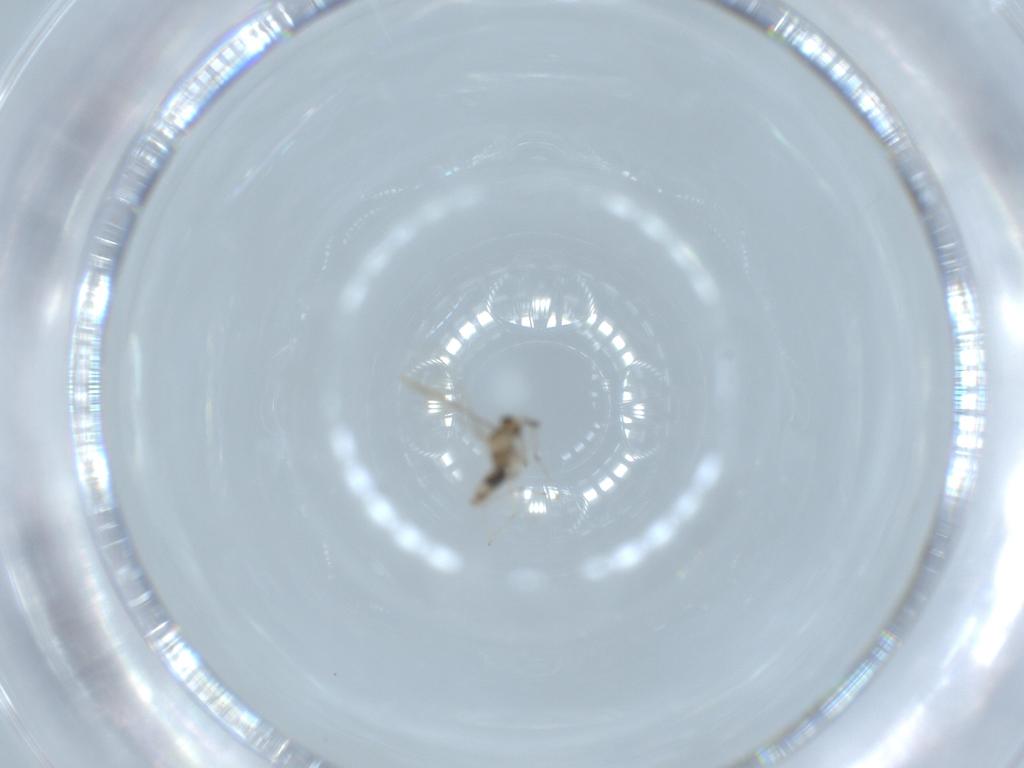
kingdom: Animalia
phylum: Arthropoda
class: Insecta
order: Diptera
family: Cecidomyiidae
